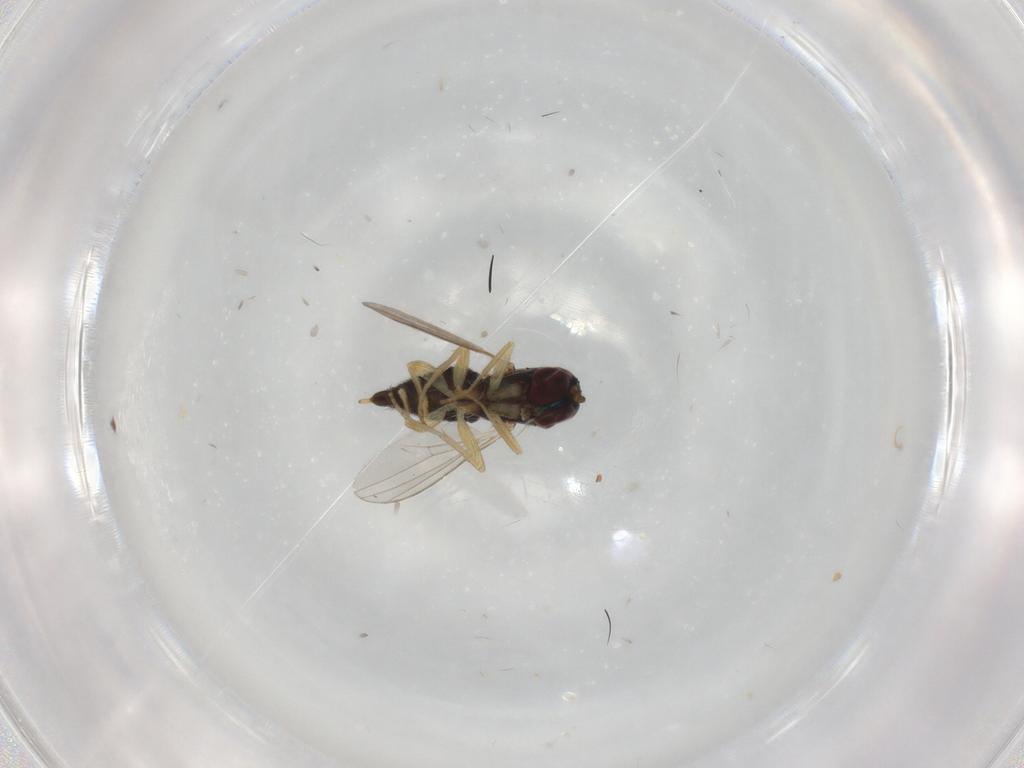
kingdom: Animalia
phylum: Arthropoda
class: Insecta
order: Diptera
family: Dolichopodidae
